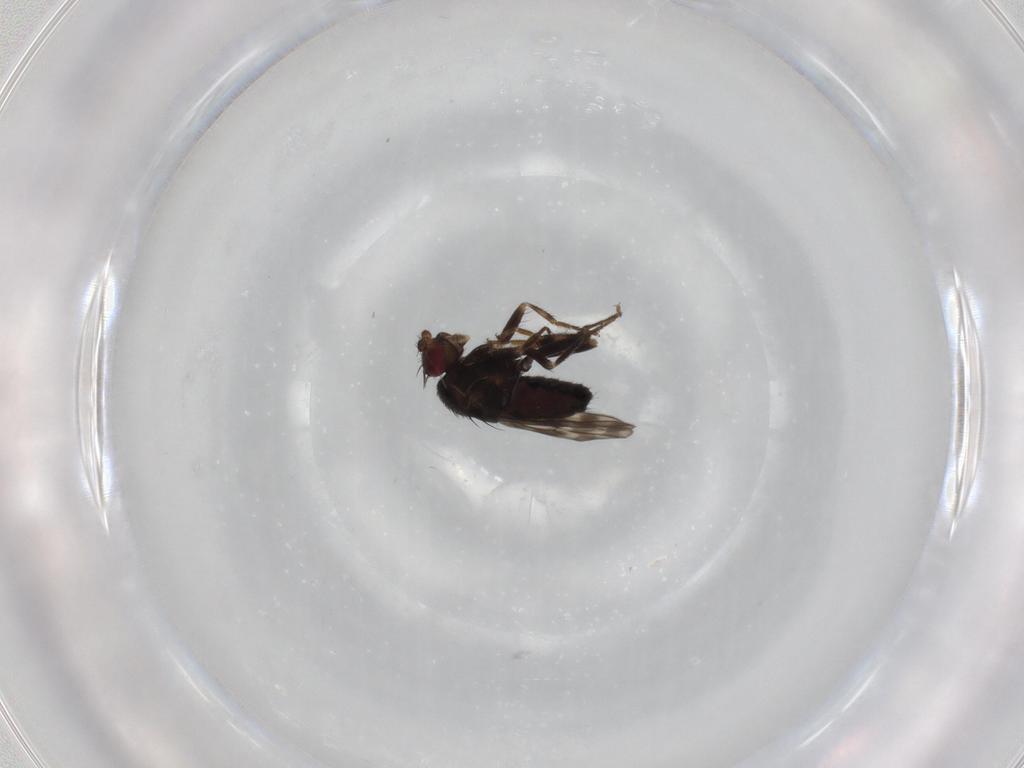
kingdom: Animalia
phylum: Arthropoda
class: Insecta
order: Diptera
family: Sphaeroceridae
